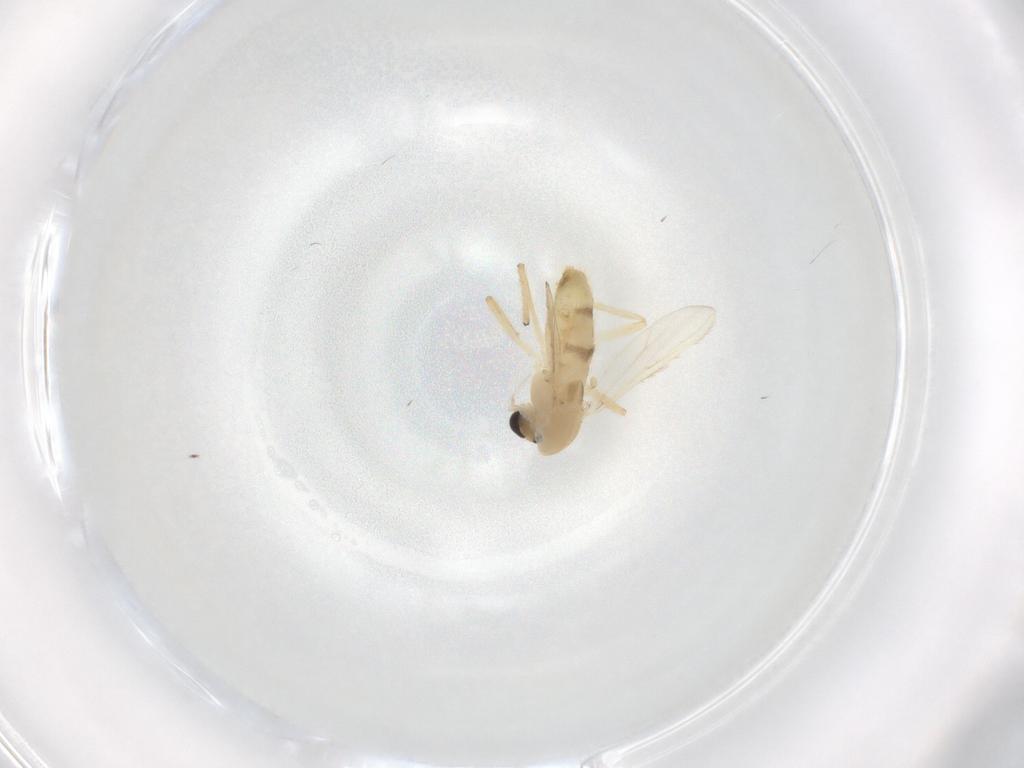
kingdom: Animalia
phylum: Arthropoda
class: Insecta
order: Diptera
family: Chironomidae
